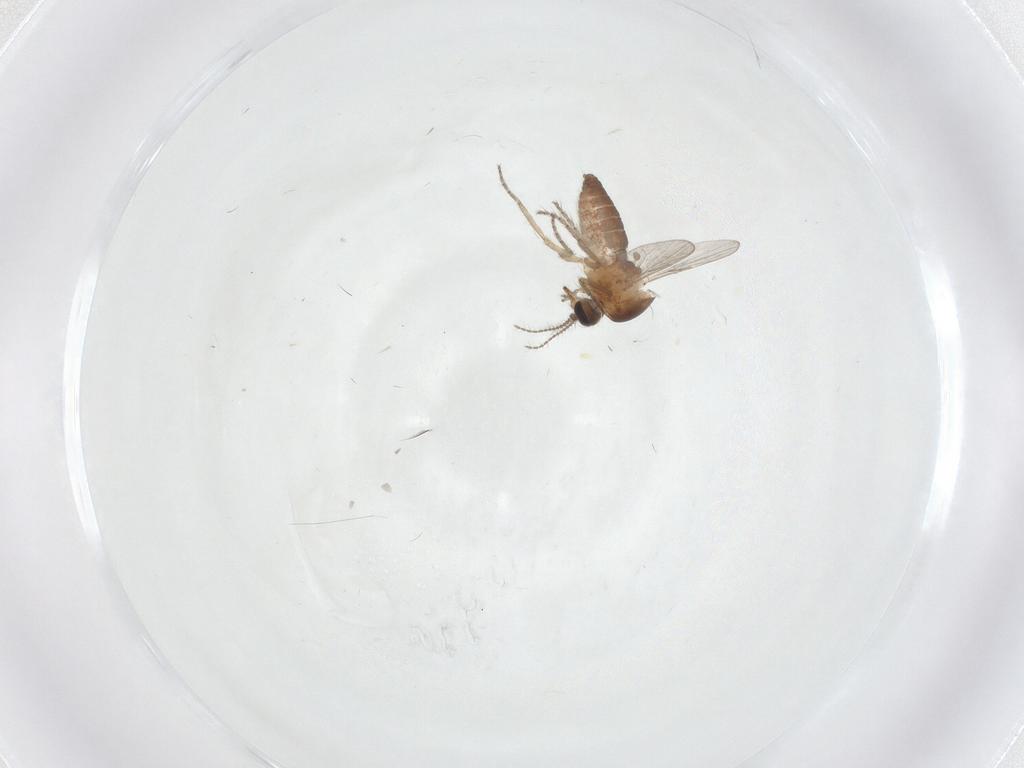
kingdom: Animalia
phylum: Arthropoda
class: Insecta
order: Diptera
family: Ceratopogonidae
